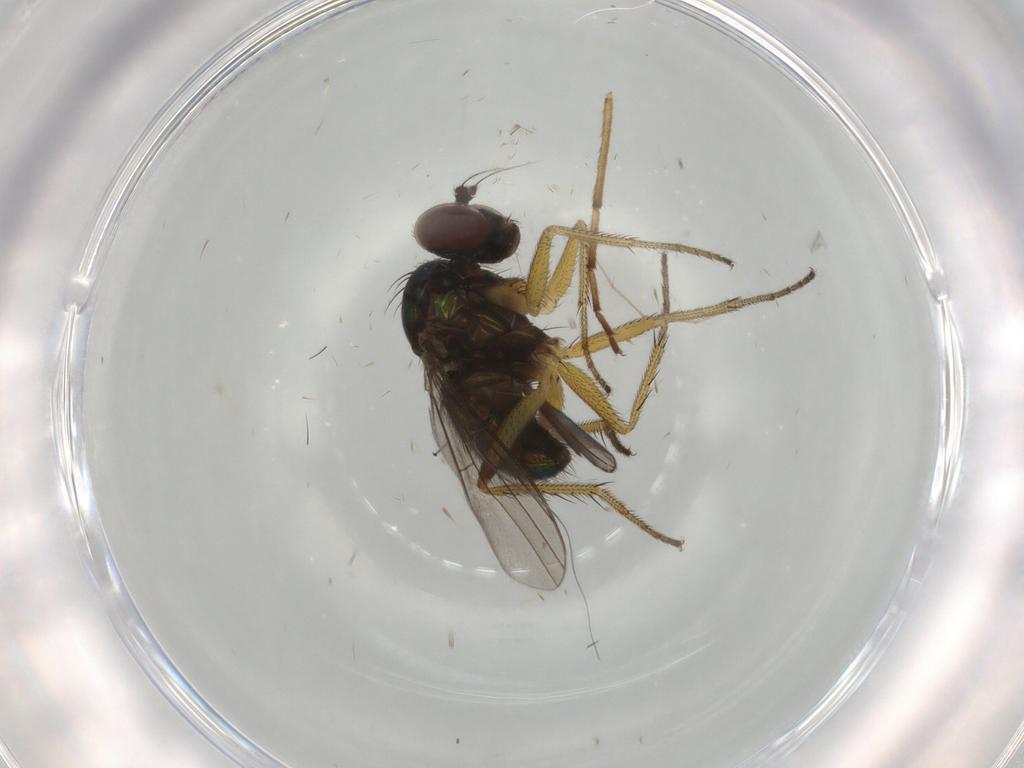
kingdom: Animalia
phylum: Arthropoda
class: Insecta
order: Diptera
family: Dolichopodidae
